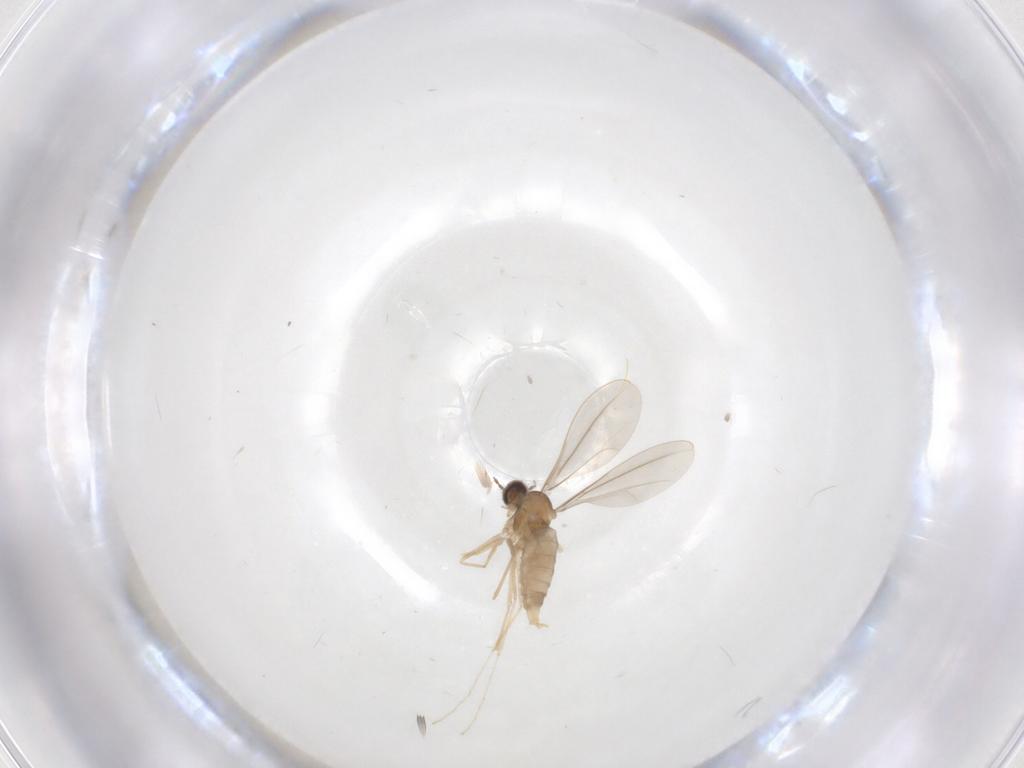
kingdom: Animalia
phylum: Arthropoda
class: Insecta
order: Diptera
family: Cecidomyiidae
